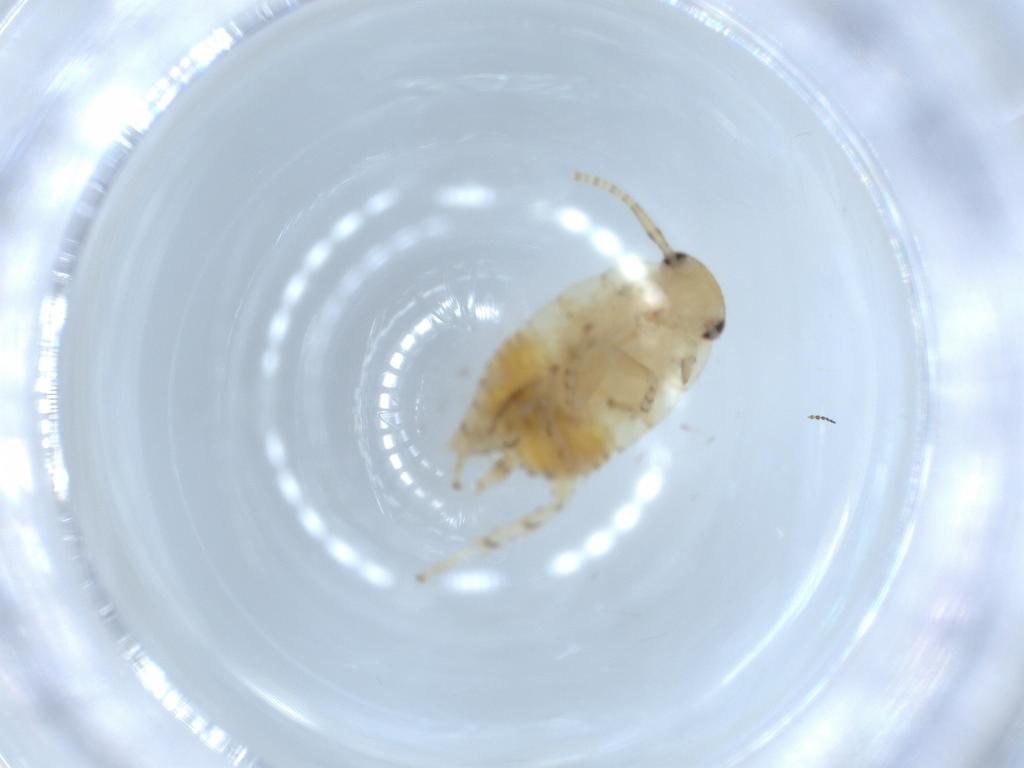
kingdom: Animalia
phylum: Arthropoda
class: Insecta
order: Blattodea
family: Ectobiidae
